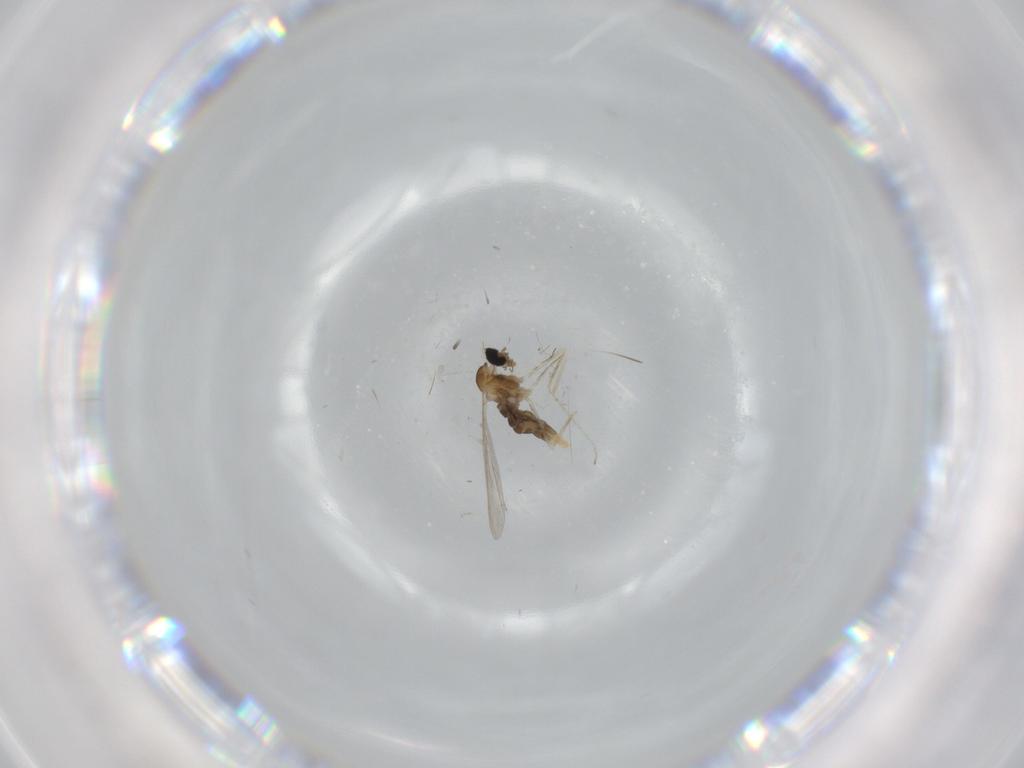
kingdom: Animalia
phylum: Arthropoda
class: Insecta
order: Diptera
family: Cecidomyiidae
